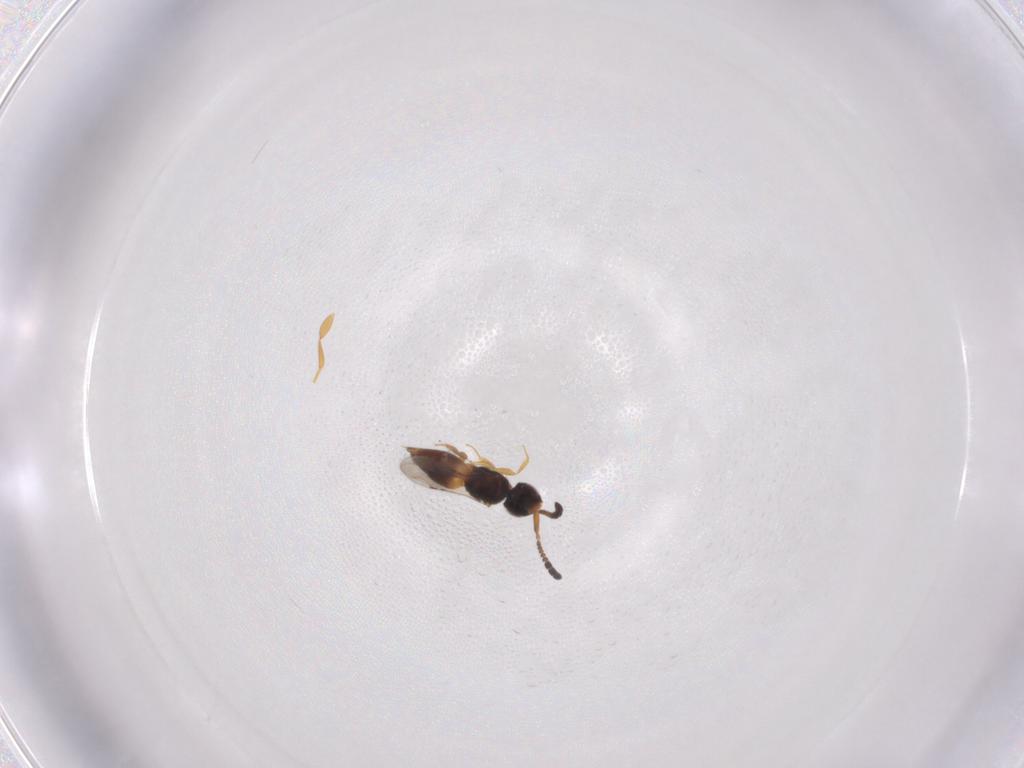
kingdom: Animalia
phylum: Arthropoda
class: Insecta
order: Hymenoptera
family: Ceraphronidae
